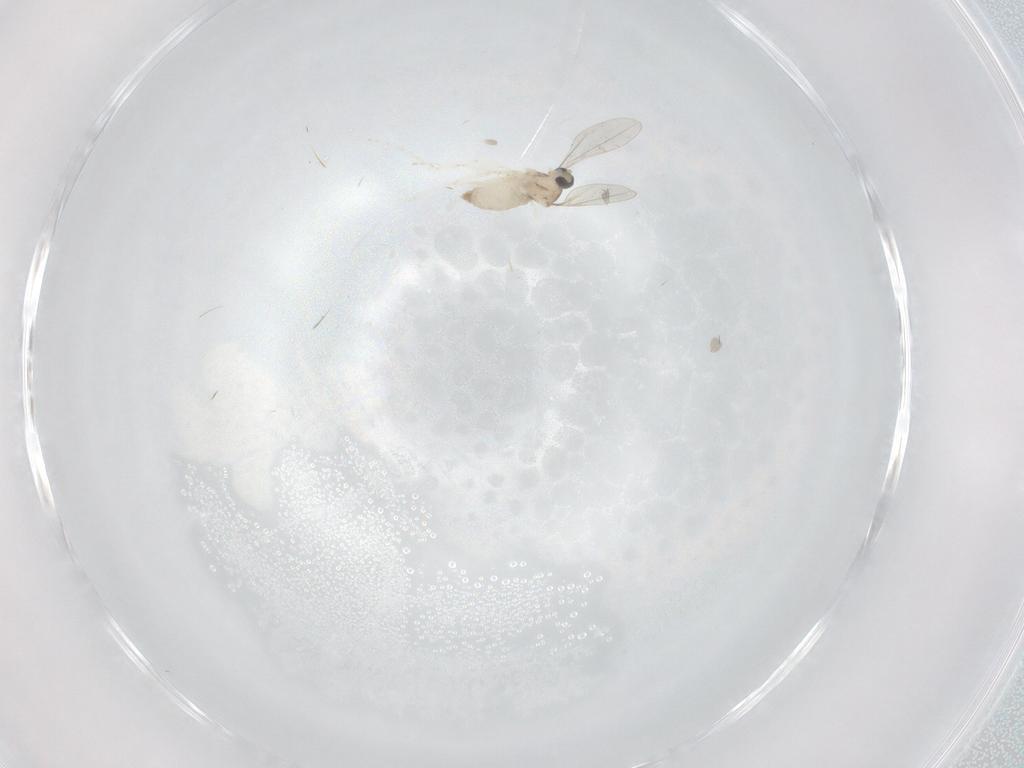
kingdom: Animalia
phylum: Arthropoda
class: Insecta
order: Diptera
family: Tipulidae
